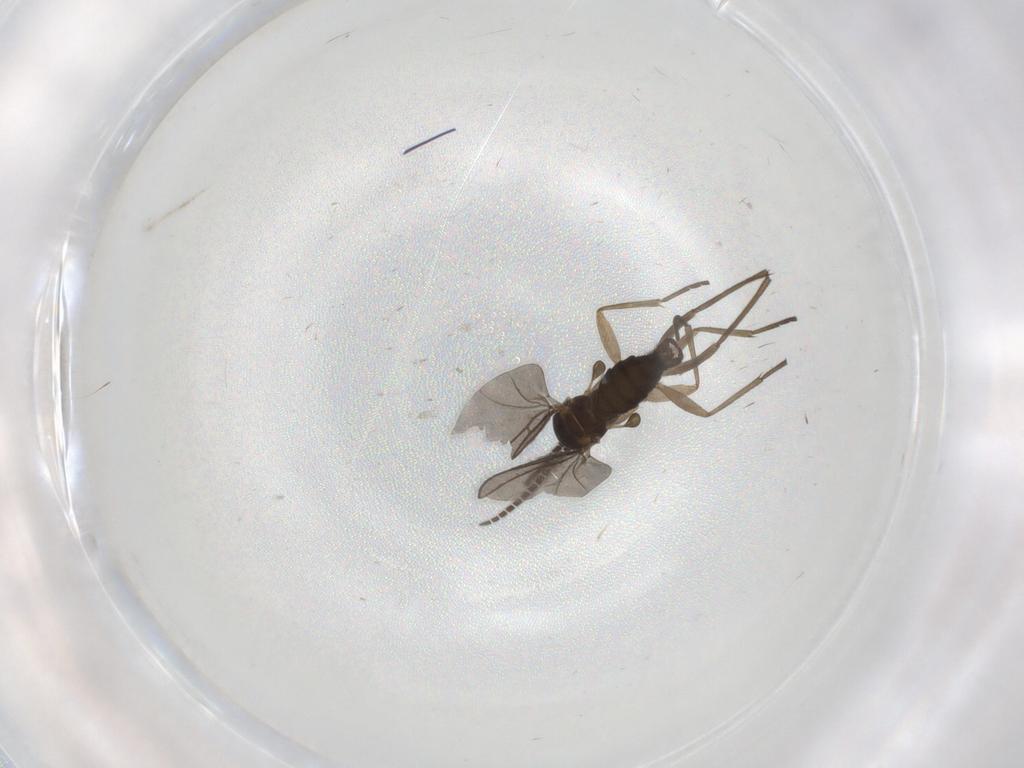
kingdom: Animalia
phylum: Arthropoda
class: Insecta
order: Diptera
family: Sciaridae
